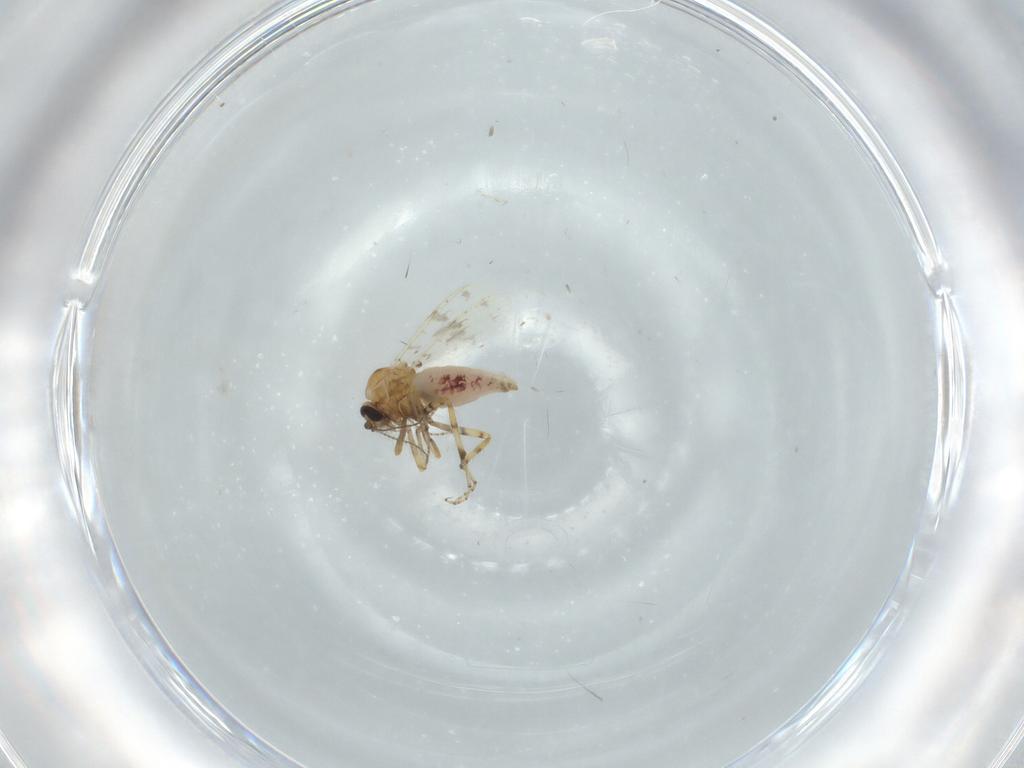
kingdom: Animalia
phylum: Arthropoda
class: Insecta
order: Diptera
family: Ceratopogonidae
